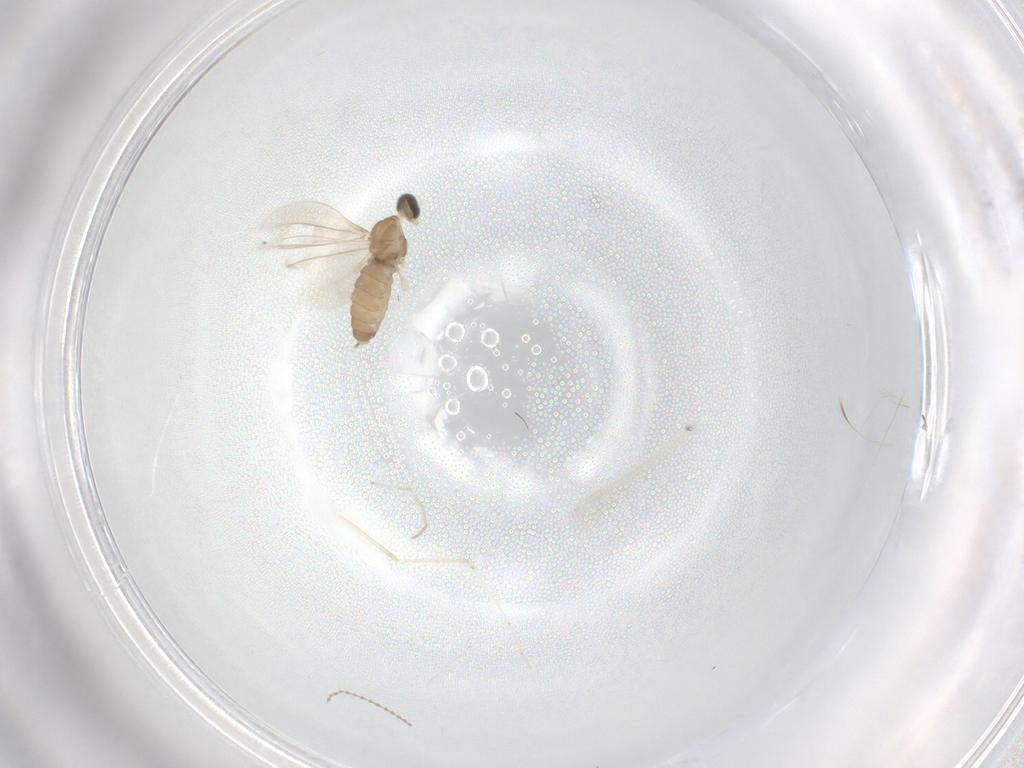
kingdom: Animalia
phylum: Arthropoda
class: Insecta
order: Diptera
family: Cecidomyiidae
